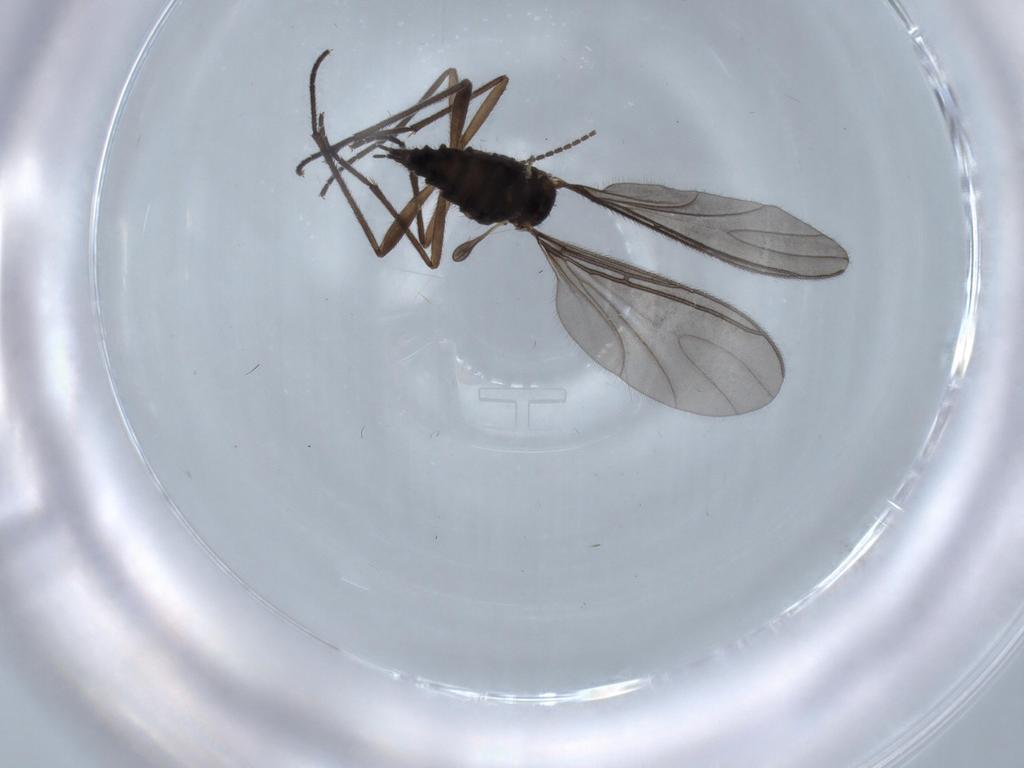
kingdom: Animalia
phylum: Arthropoda
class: Insecta
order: Diptera
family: Sciaridae
